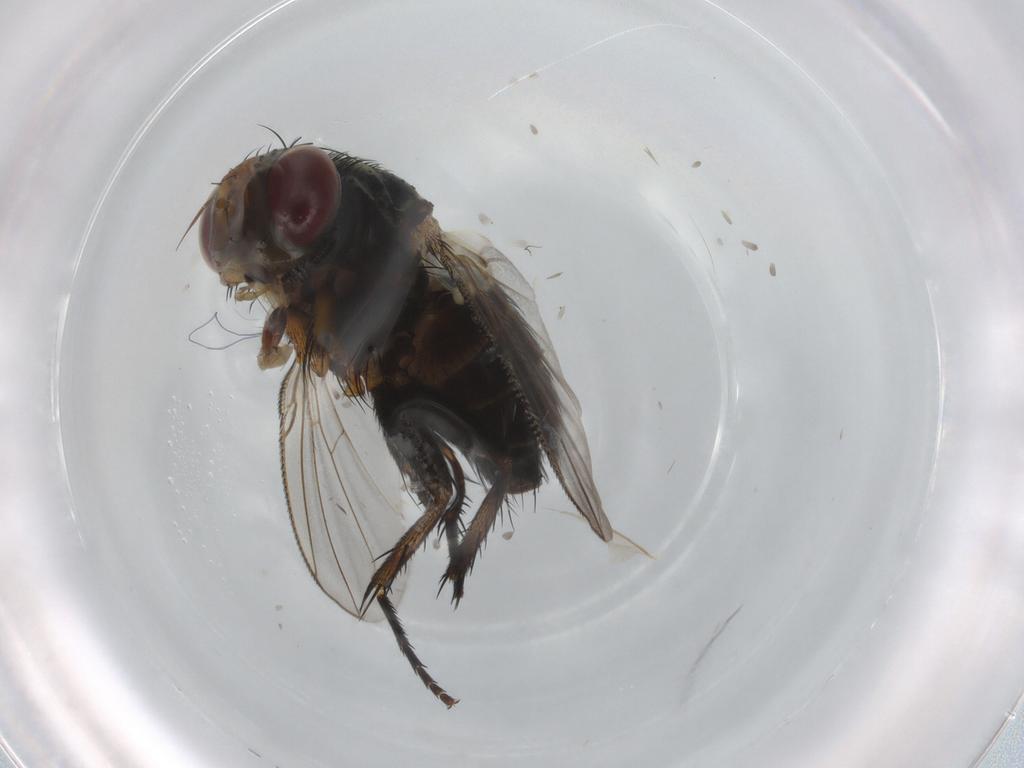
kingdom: Animalia
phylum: Arthropoda
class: Insecta
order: Diptera
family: Tachinidae
